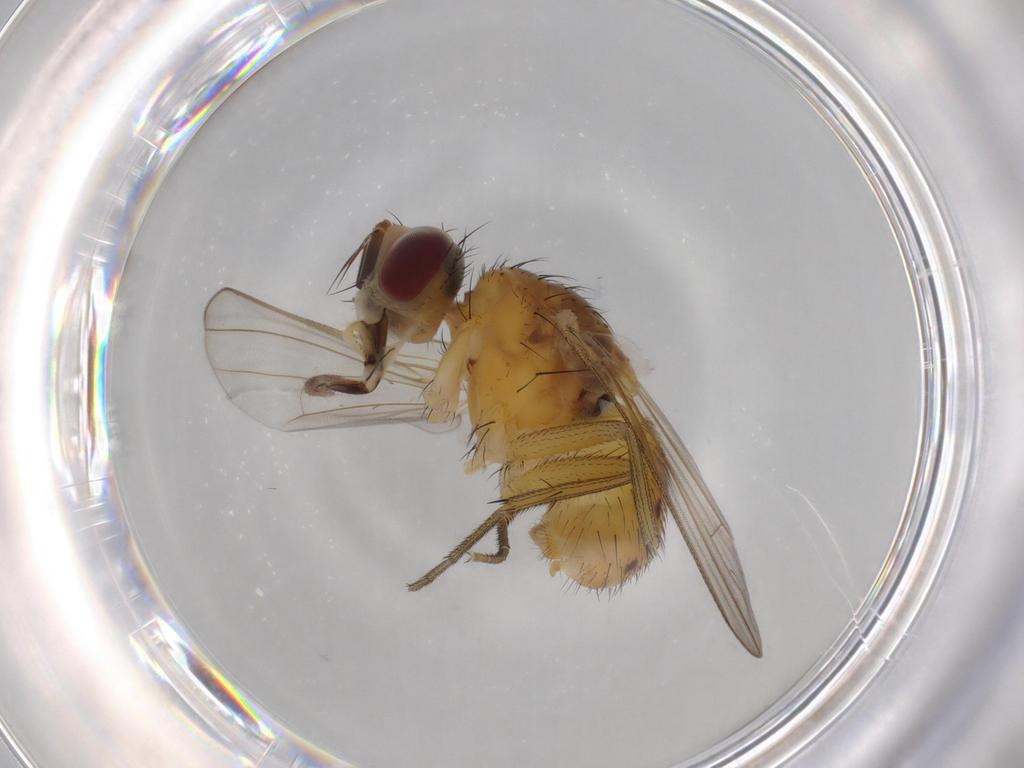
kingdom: Animalia
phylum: Arthropoda
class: Insecta
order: Diptera
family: Muscidae
